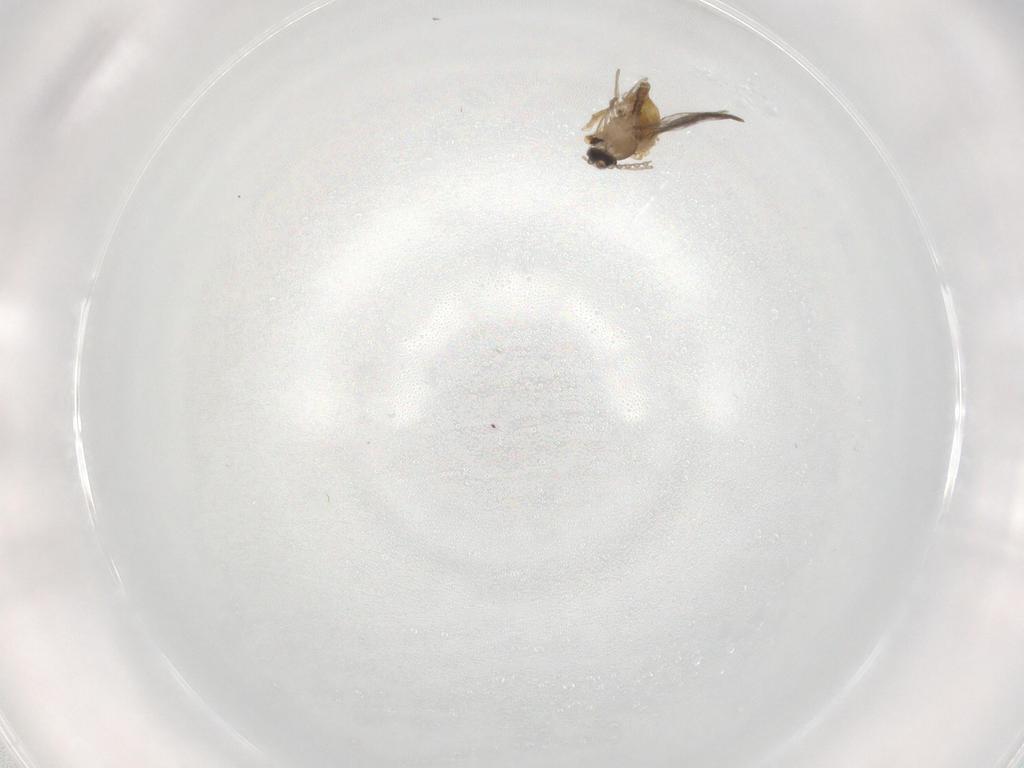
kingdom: Animalia
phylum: Arthropoda
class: Insecta
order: Diptera
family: Cecidomyiidae
